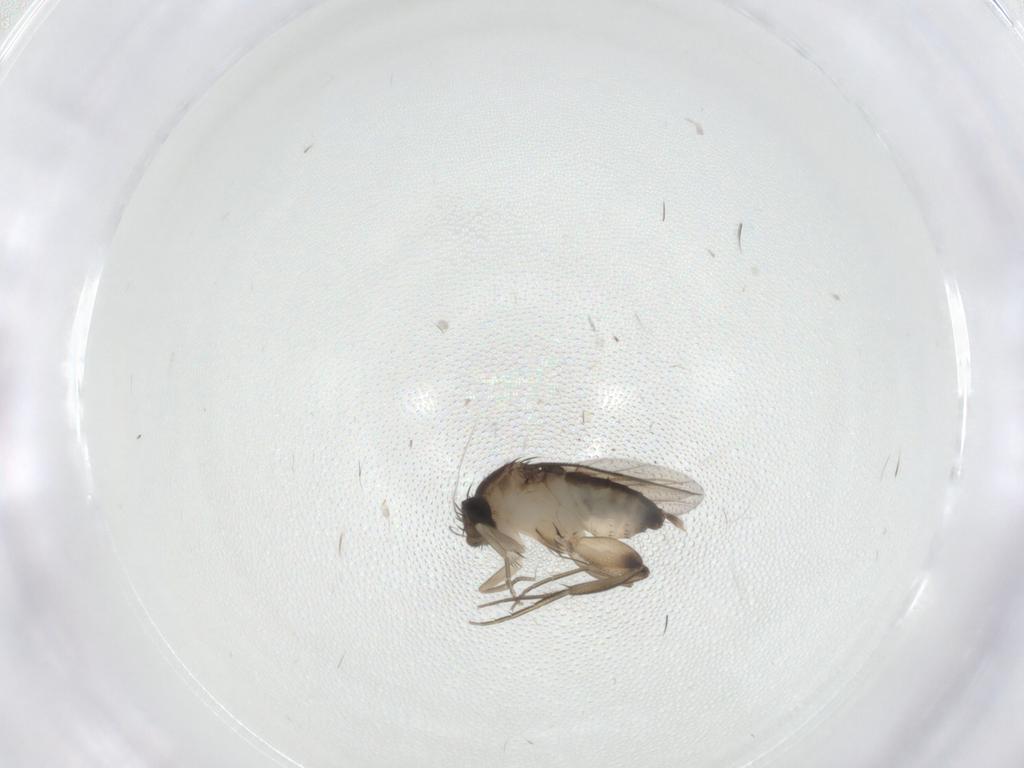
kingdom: Animalia
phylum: Arthropoda
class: Insecta
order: Diptera
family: Phoridae
